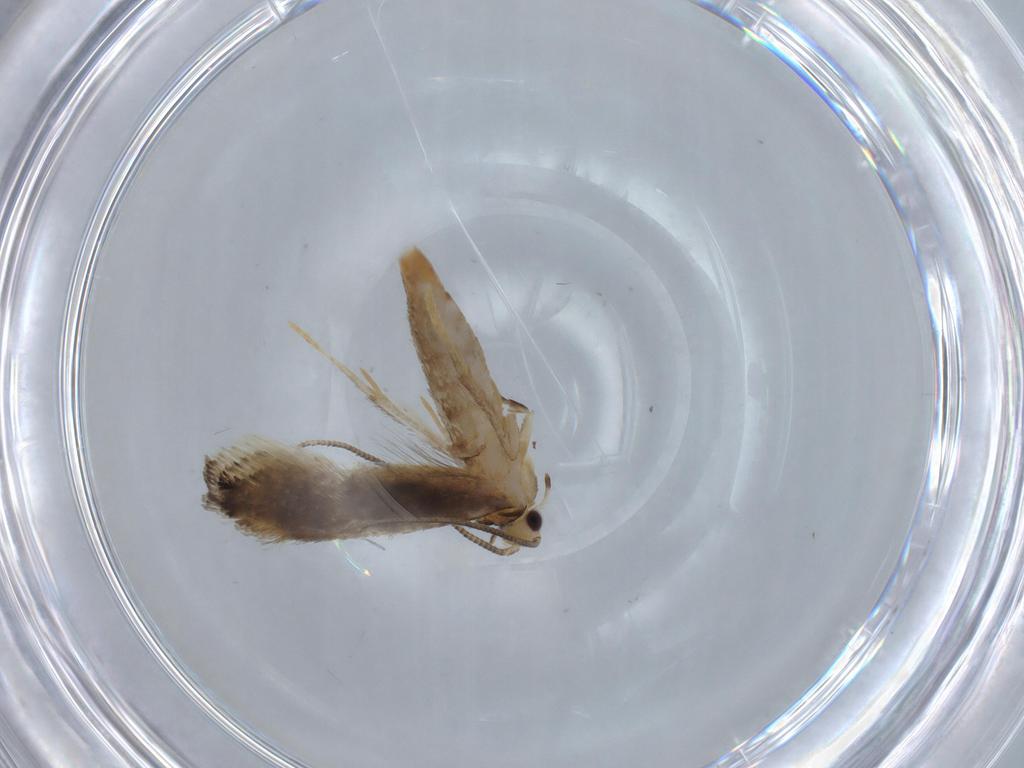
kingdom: Animalia
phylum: Arthropoda
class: Insecta
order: Lepidoptera
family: Tineidae
